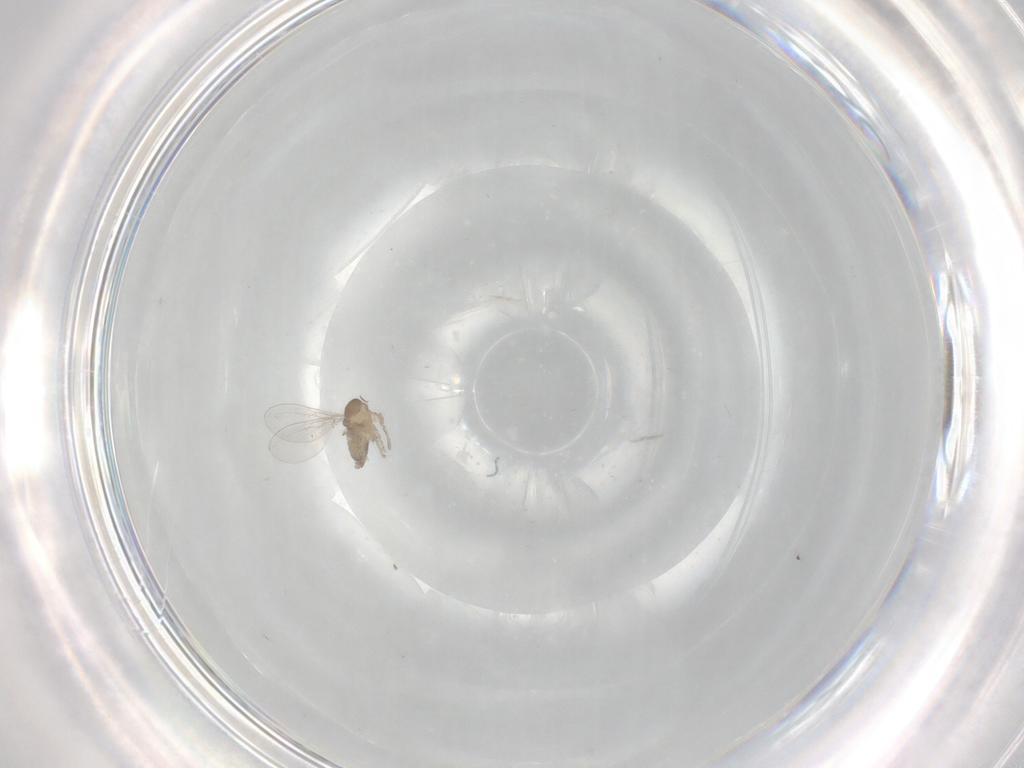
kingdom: Animalia
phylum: Arthropoda
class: Insecta
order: Diptera
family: Cecidomyiidae
